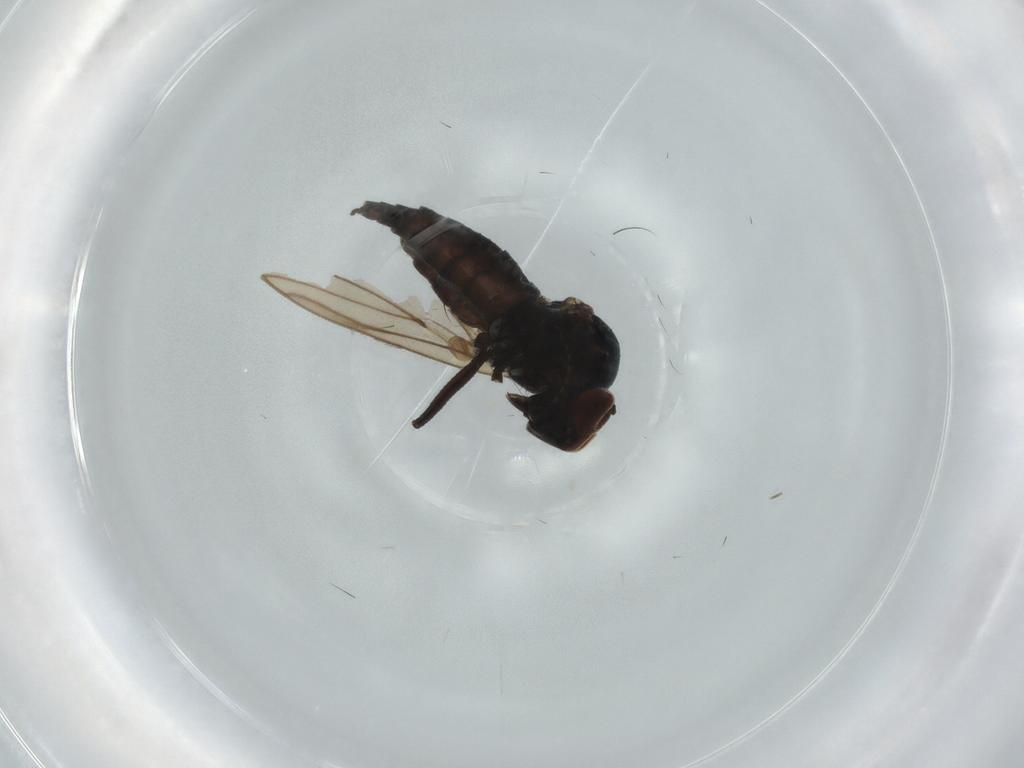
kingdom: Animalia
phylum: Arthropoda
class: Insecta
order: Diptera
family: Hybotidae
